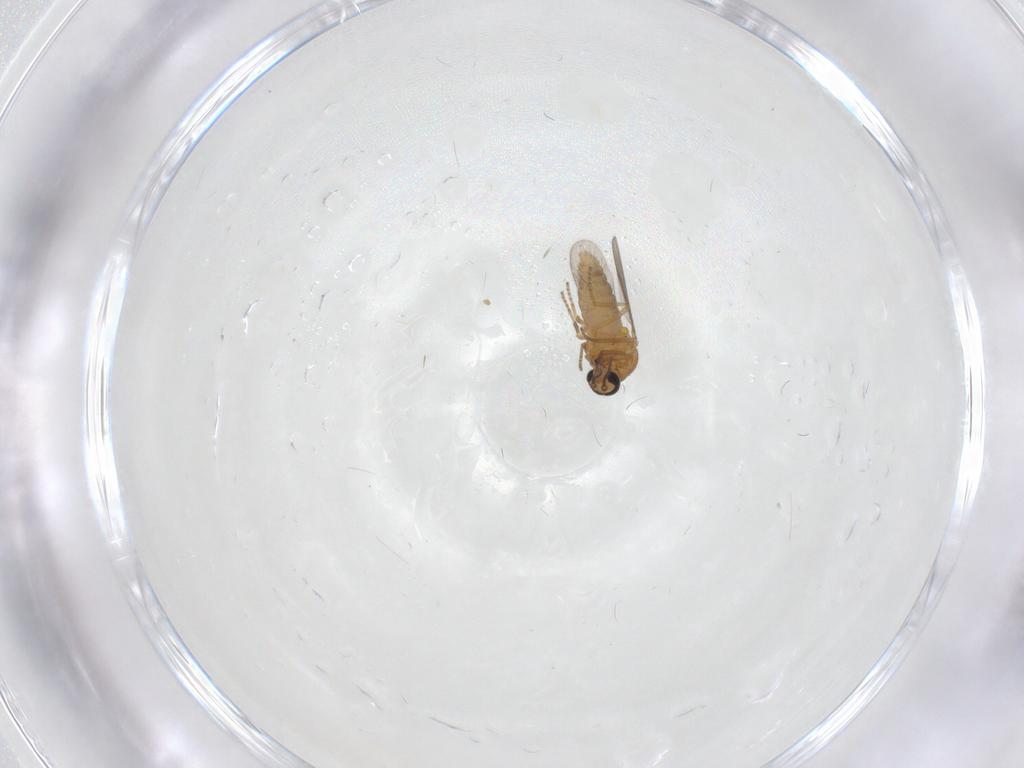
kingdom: Animalia
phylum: Arthropoda
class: Insecta
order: Diptera
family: Ceratopogonidae
